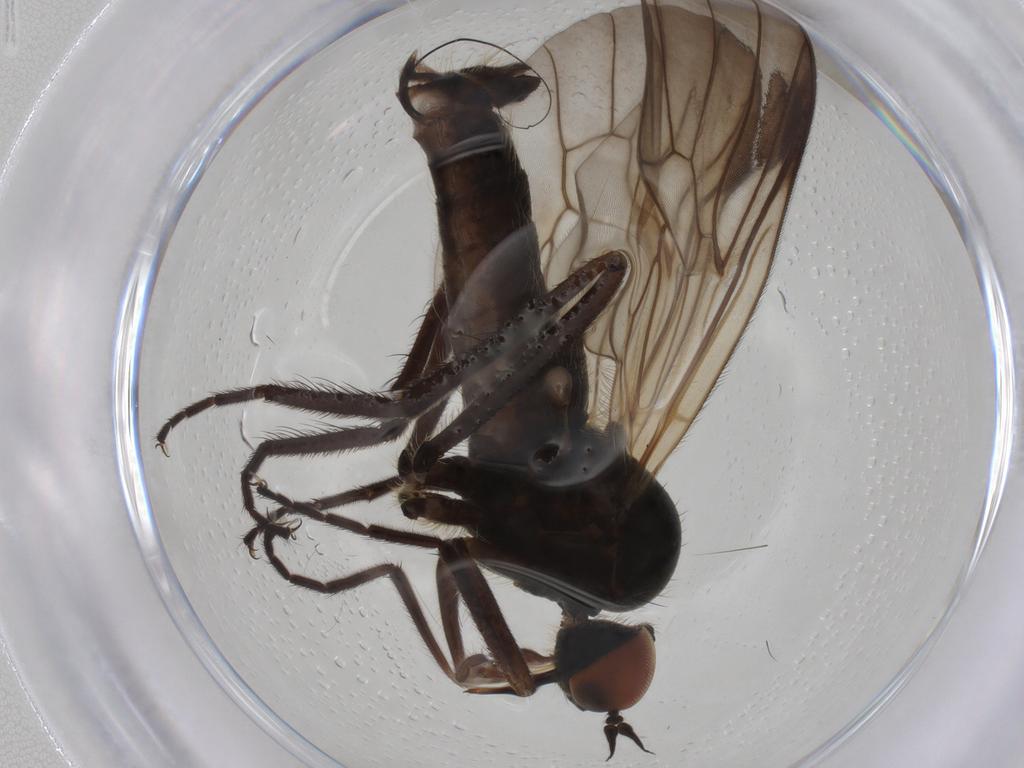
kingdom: Animalia
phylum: Arthropoda
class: Insecta
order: Diptera
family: Empididae
